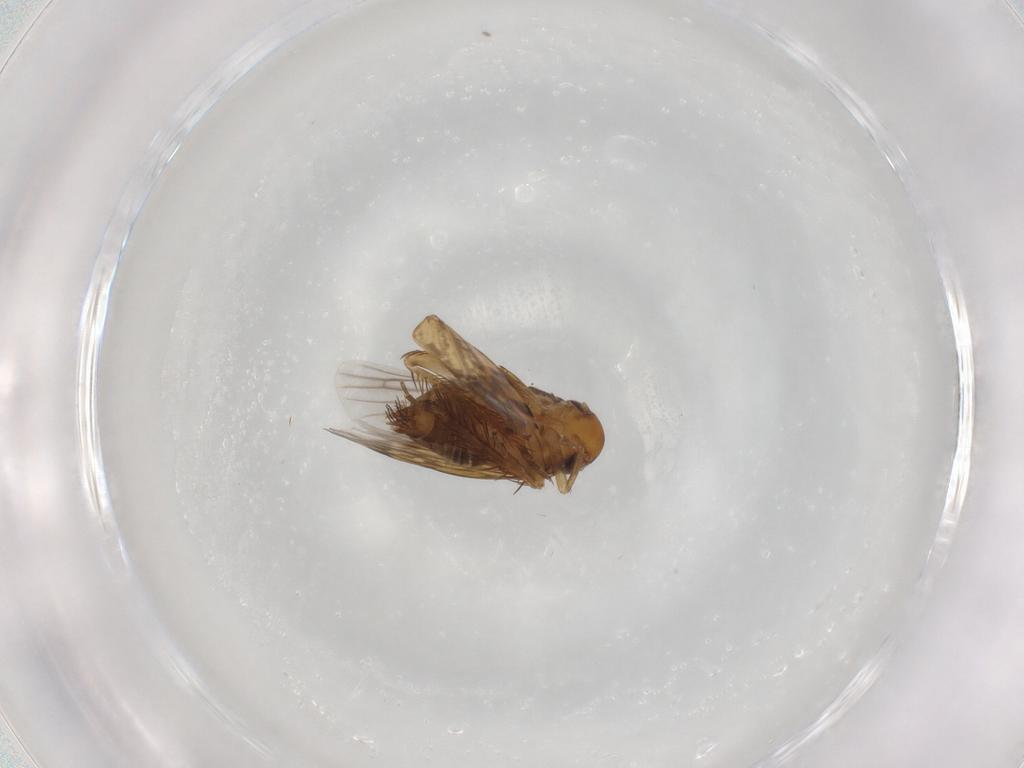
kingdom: Animalia
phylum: Arthropoda
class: Insecta
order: Hemiptera
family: Cicadellidae
